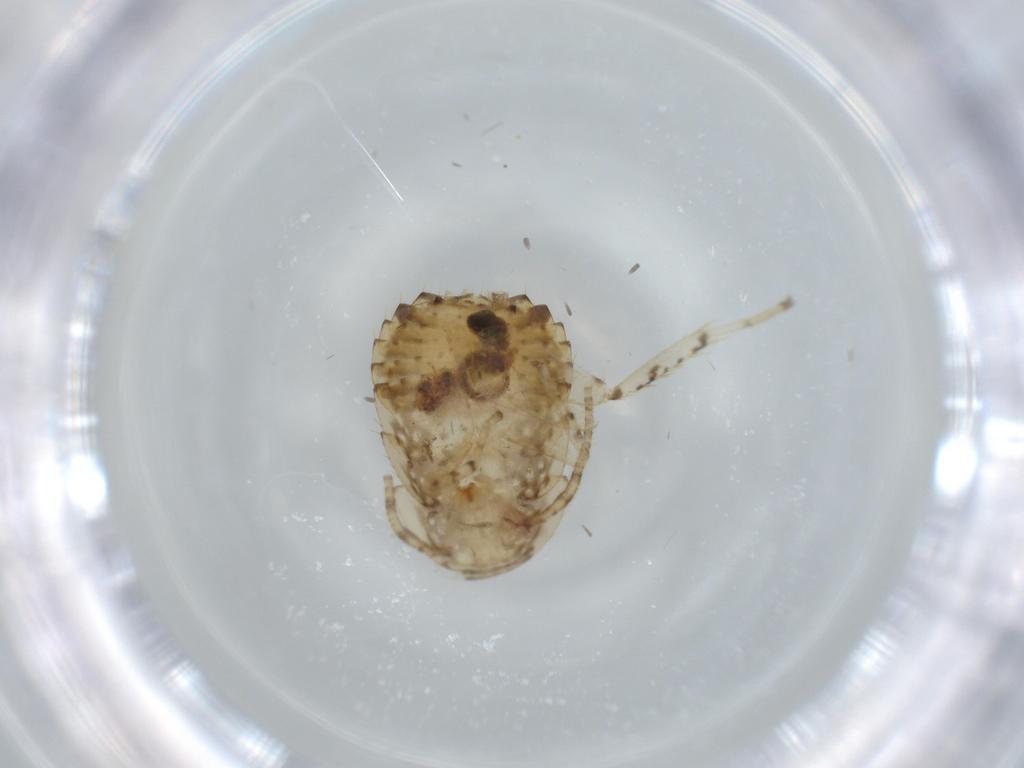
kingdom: Animalia
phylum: Arthropoda
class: Insecta
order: Blattodea
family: Ectobiidae
